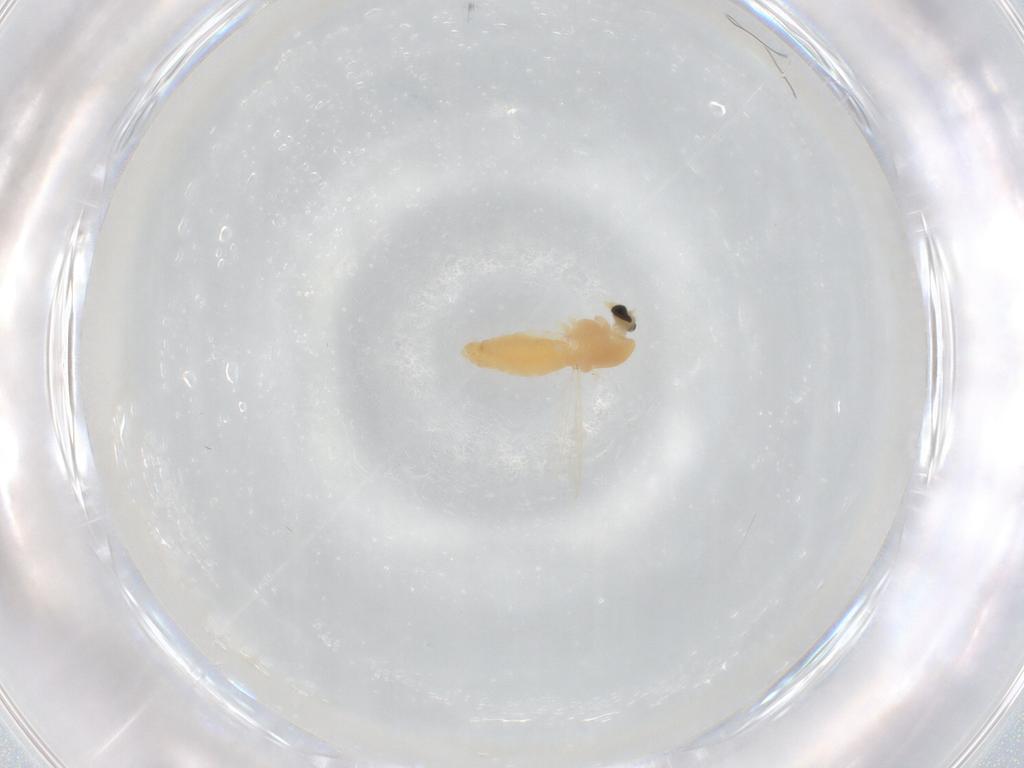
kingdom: Animalia
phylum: Arthropoda
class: Insecta
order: Diptera
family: Chironomidae
